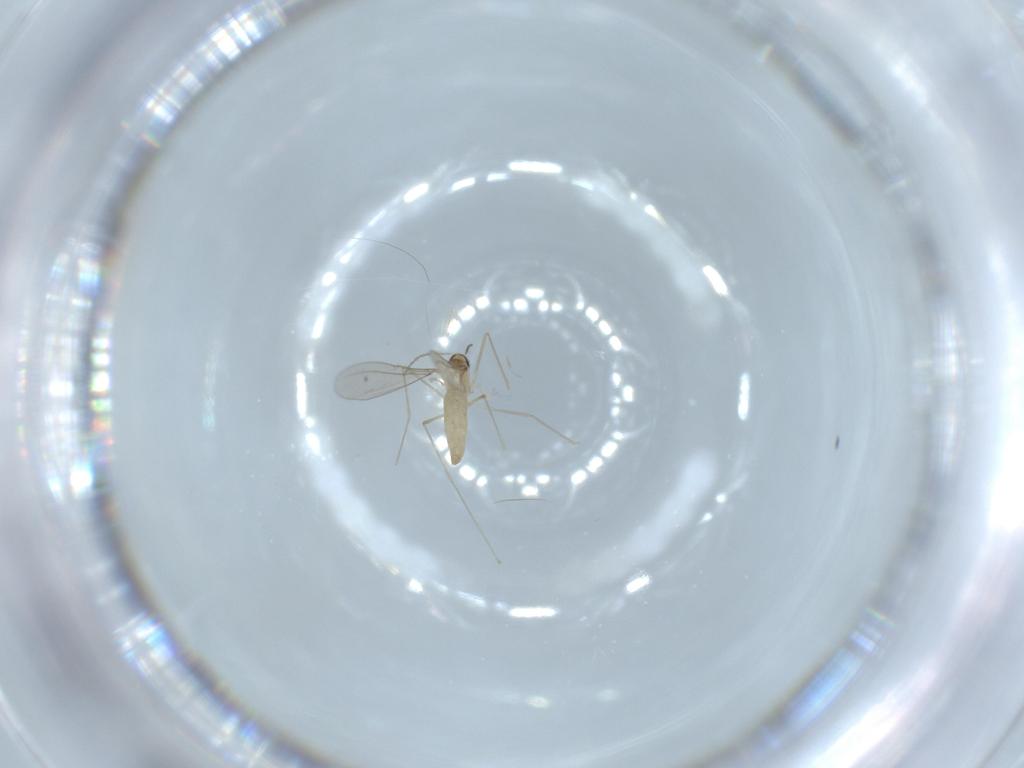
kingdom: Animalia
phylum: Arthropoda
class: Insecta
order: Diptera
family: Cecidomyiidae
